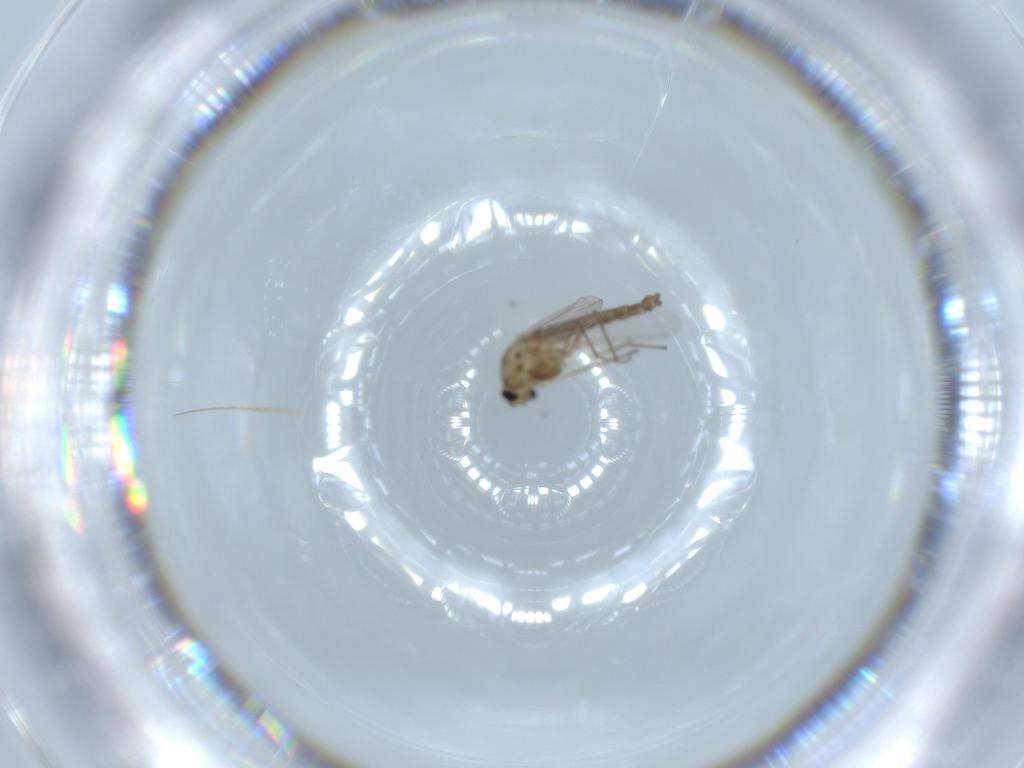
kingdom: Animalia
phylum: Arthropoda
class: Insecta
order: Diptera
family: Chironomidae
